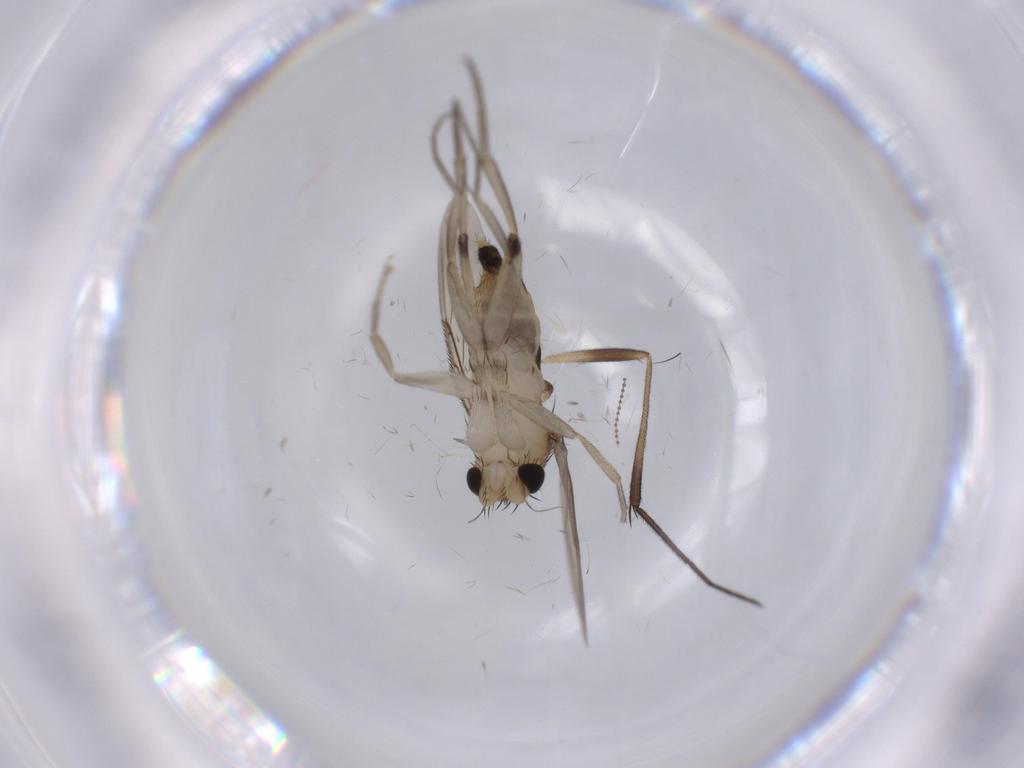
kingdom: Animalia
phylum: Arthropoda
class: Insecta
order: Diptera
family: Keroplatidae
